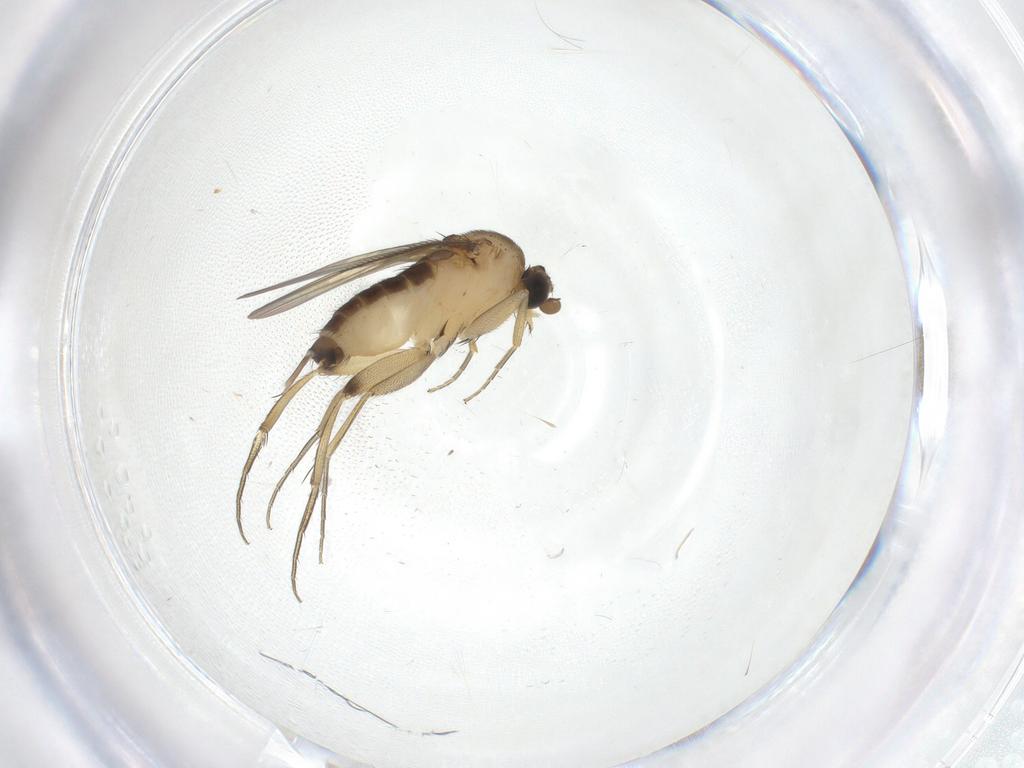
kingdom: Animalia
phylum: Arthropoda
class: Insecta
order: Diptera
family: Phoridae
